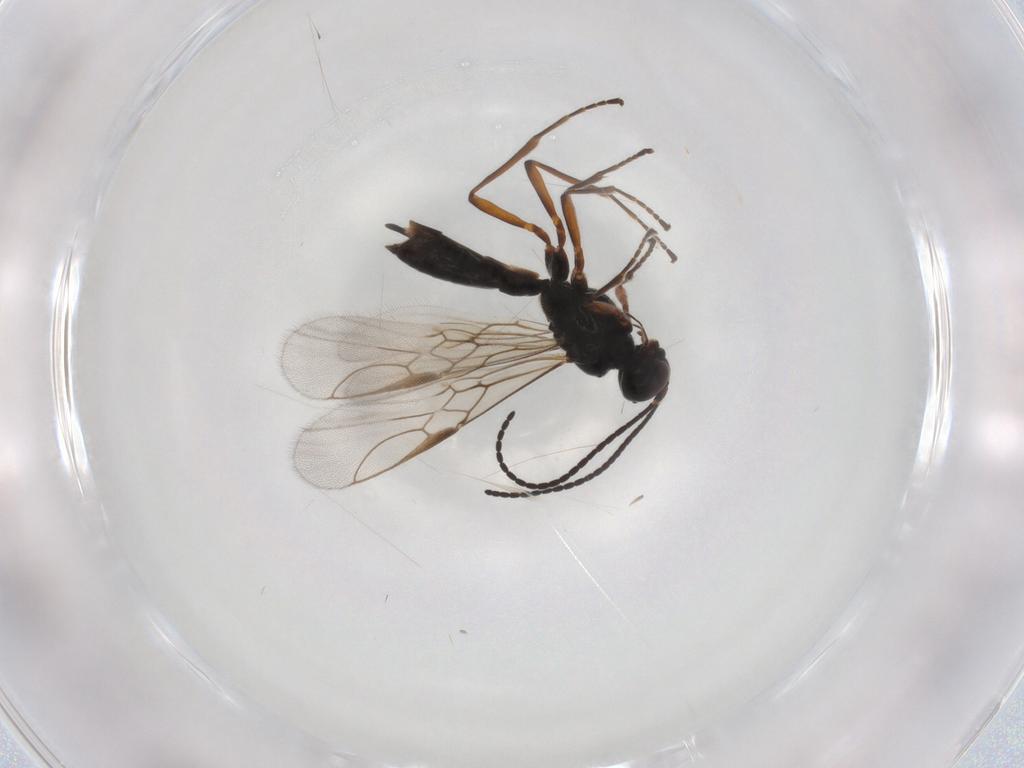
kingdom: Animalia
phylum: Arthropoda
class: Insecta
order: Hymenoptera
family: Braconidae
